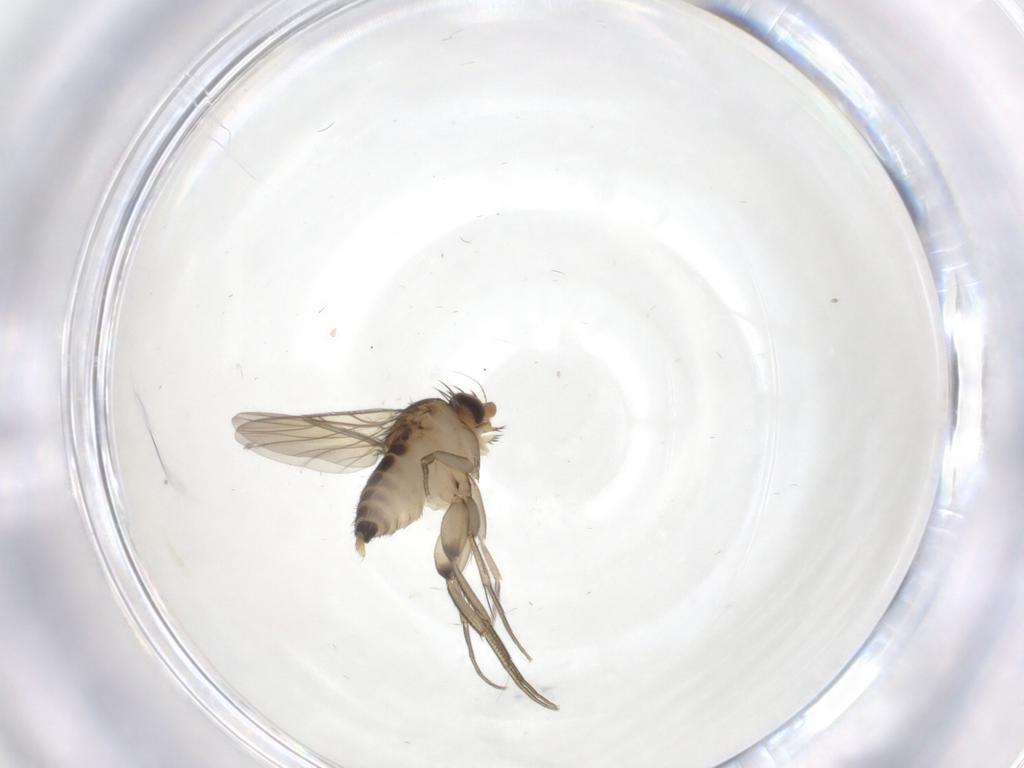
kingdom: Animalia
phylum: Arthropoda
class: Insecta
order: Diptera
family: Phoridae
